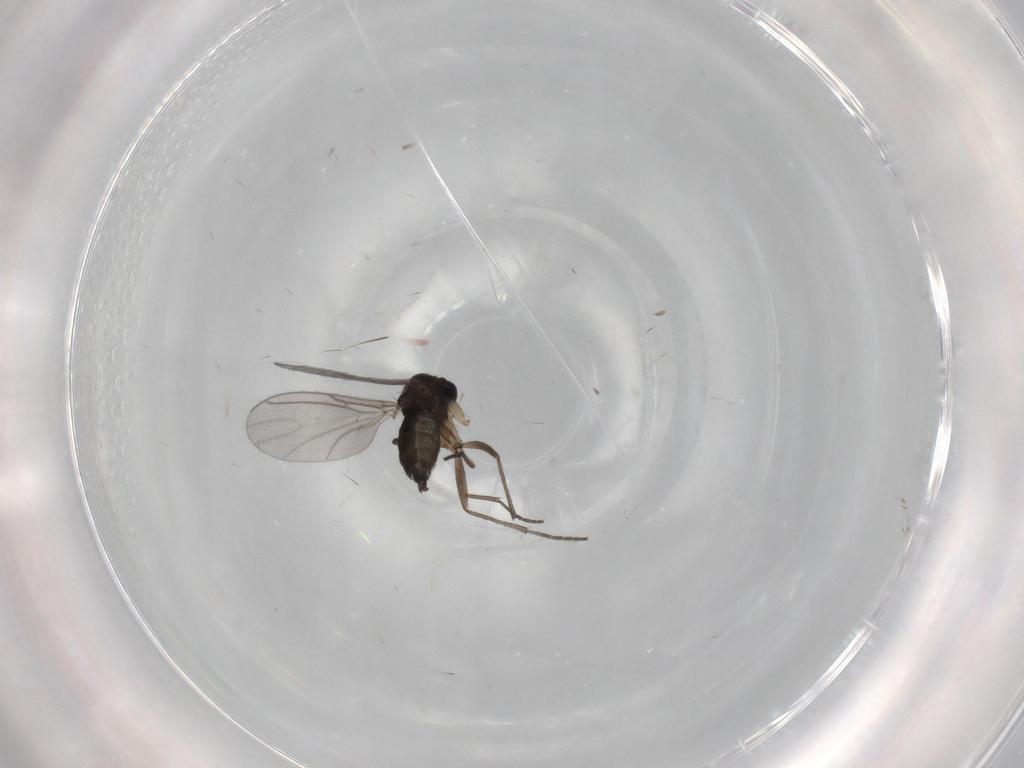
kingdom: Animalia
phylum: Arthropoda
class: Insecta
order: Diptera
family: Sciaridae
